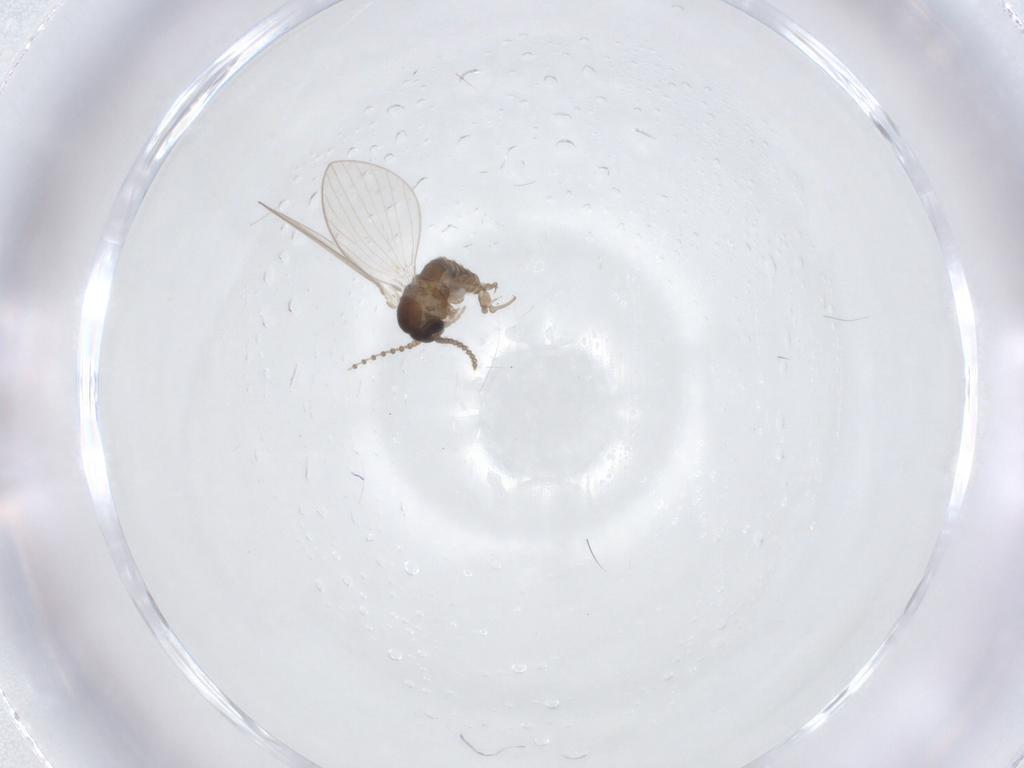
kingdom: Animalia
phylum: Arthropoda
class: Insecta
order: Diptera
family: Psychodidae
